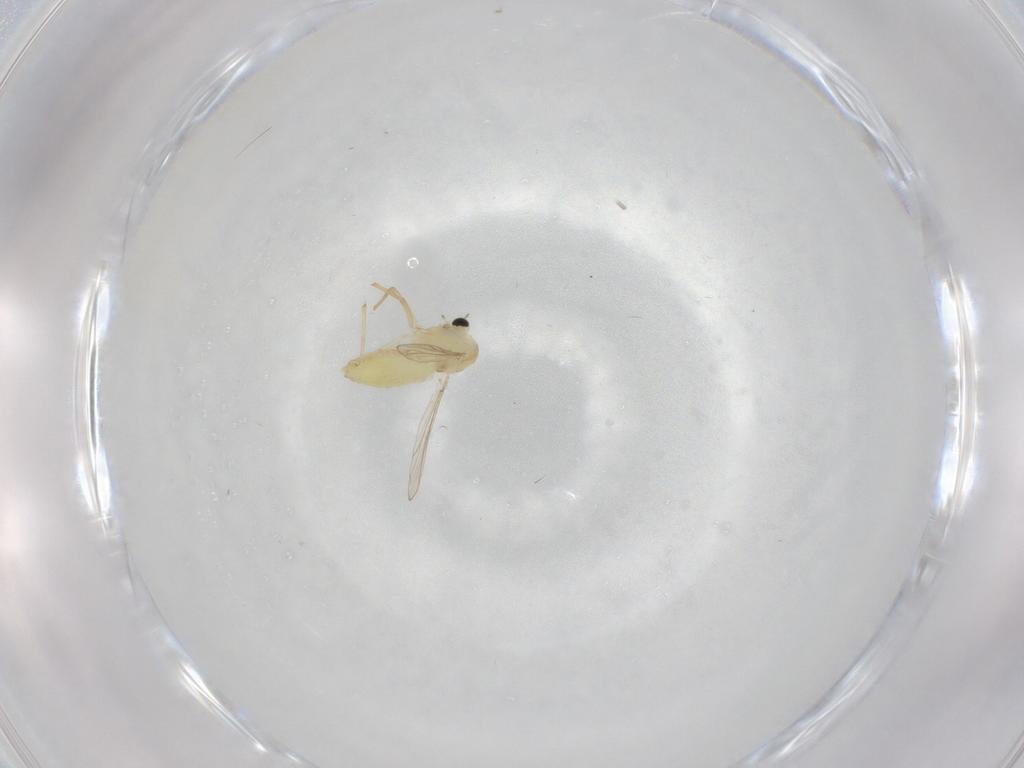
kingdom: Animalia
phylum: Arthropoda
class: Insecta
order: Diptera
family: Chironomidae
